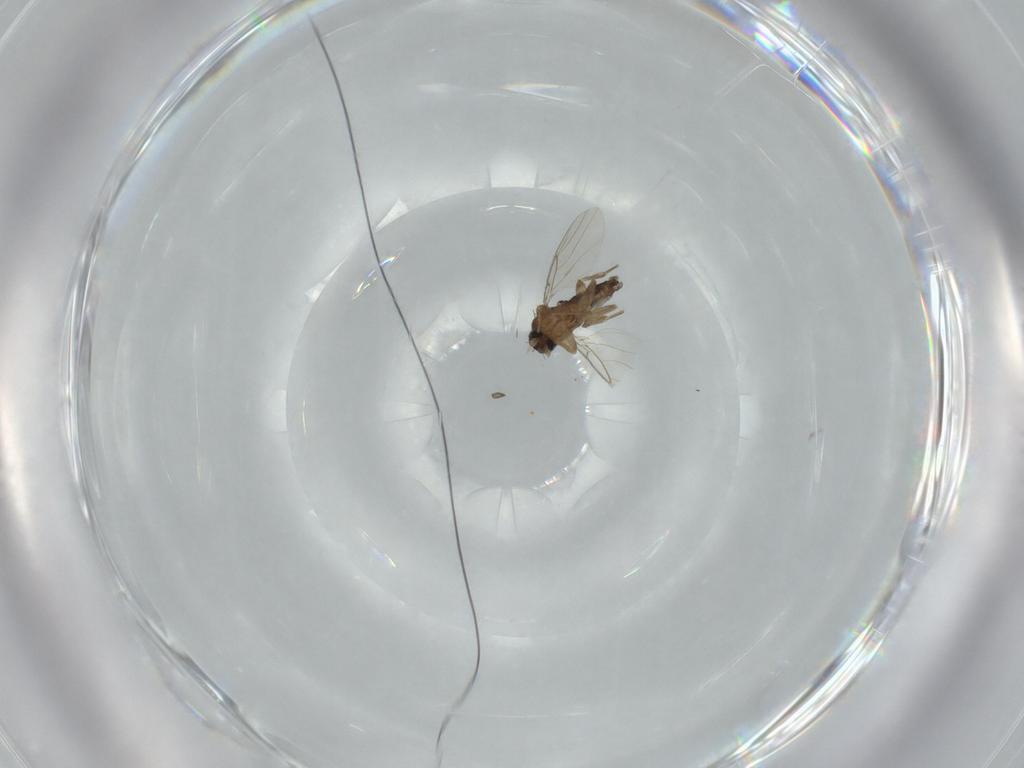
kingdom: Animalia
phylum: Arthropoda
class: Insecta
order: Diptera
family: Phoridae
